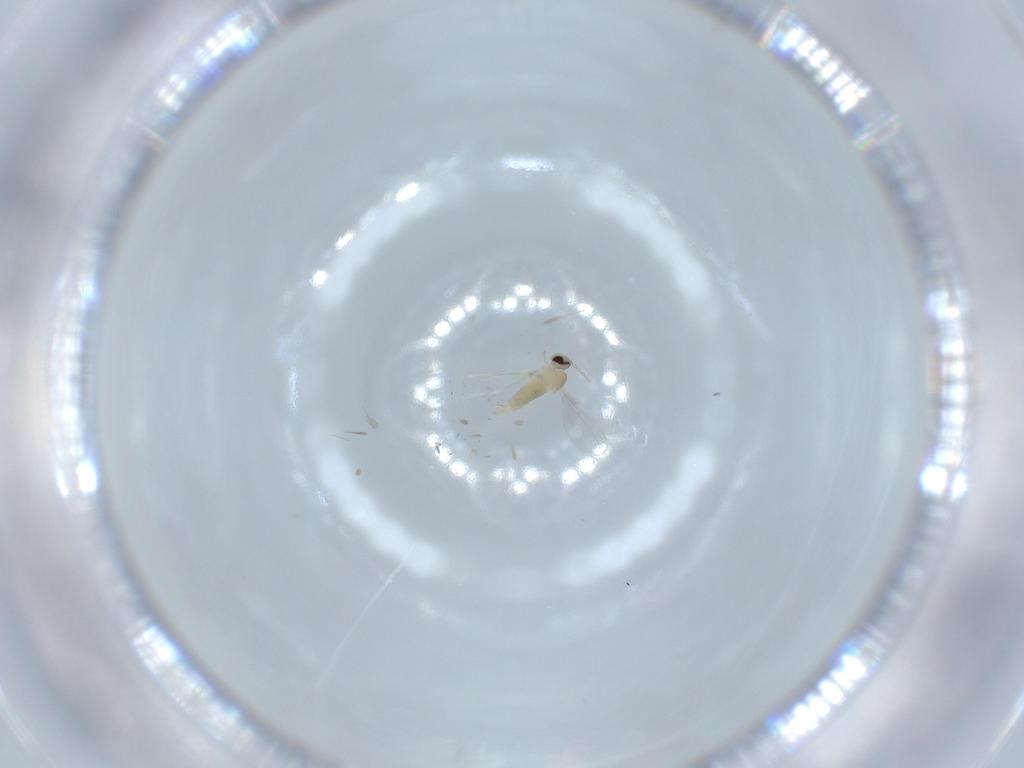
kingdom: Animalia
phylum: Arthropoda
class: Insecta
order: Diptera
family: Cecidomyiidae
